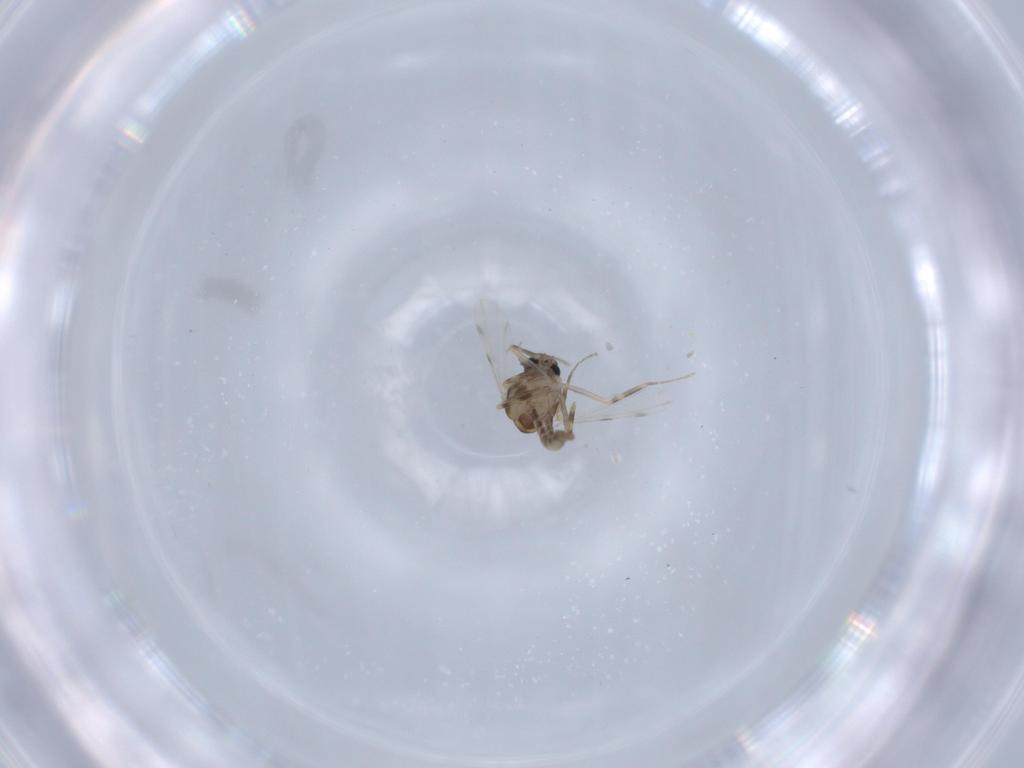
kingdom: Animalia
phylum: Arthropoda
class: Insecta
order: Diptera
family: Ceratopogonidae
